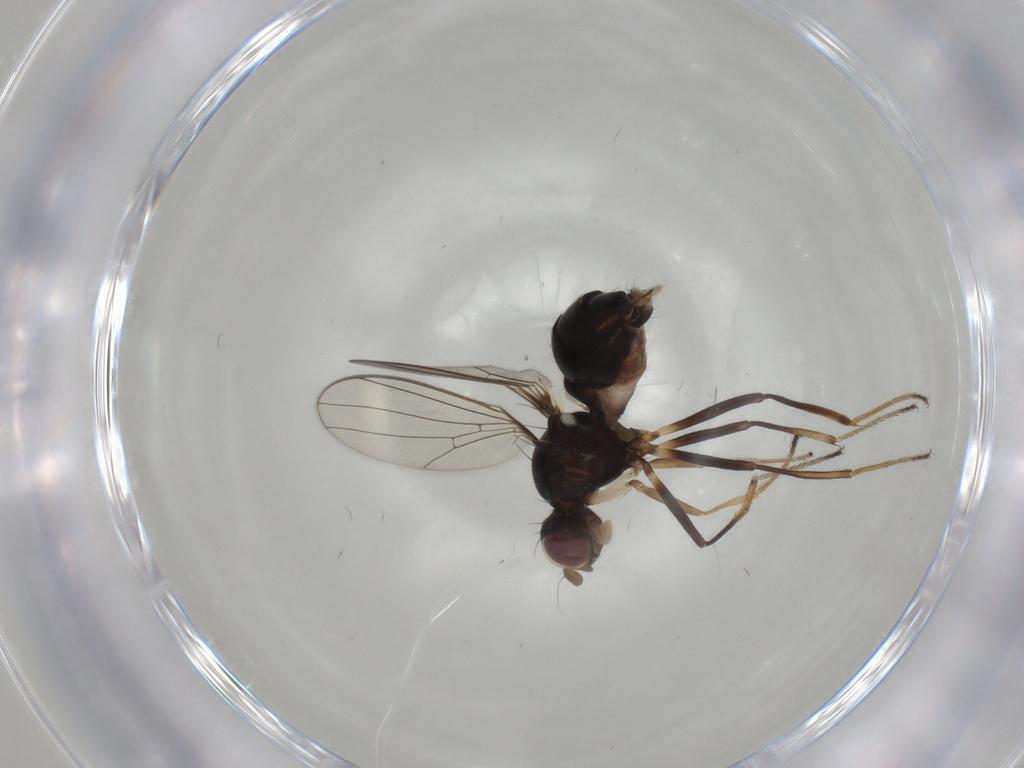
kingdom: Animalia
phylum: Arthropoda
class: Insecta
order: Diptera
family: Sepsidae
